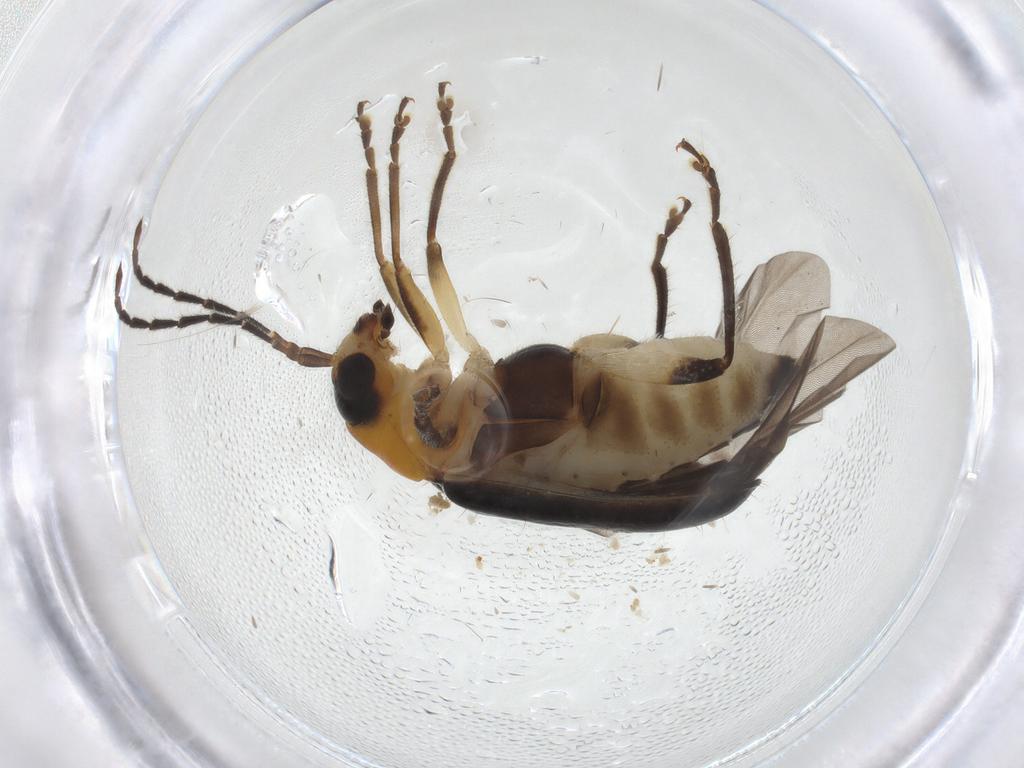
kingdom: Animalia
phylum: Arthropoda
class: Insecta
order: Coleoptera
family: Chrysomelidae
